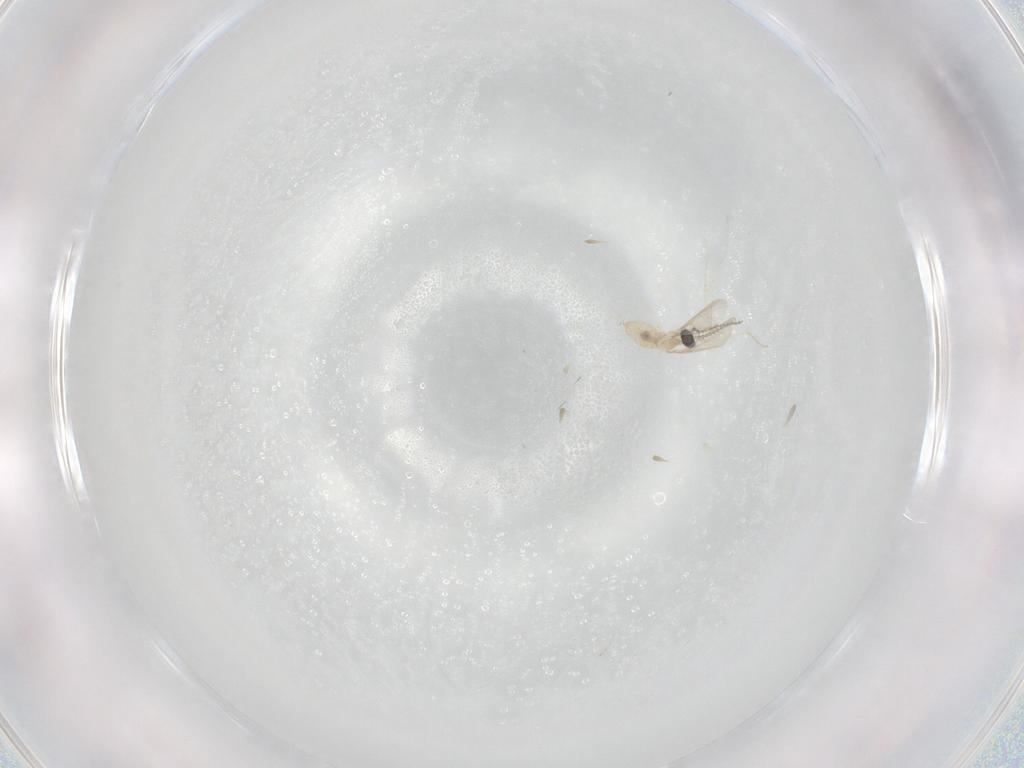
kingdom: Animalia
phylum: Arthropoda
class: Insecta
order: Diptera
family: Cecidomyiidae
